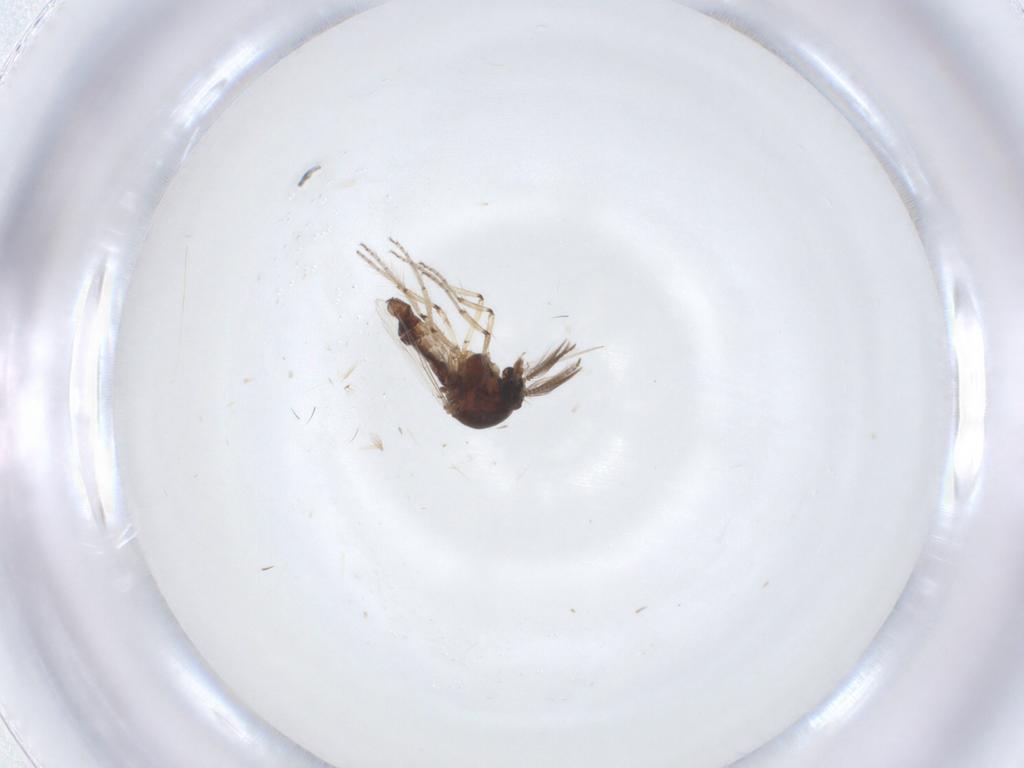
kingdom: Animalia
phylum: Arthropoda
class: Insecta
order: Diptera
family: Ceratopogonidae
